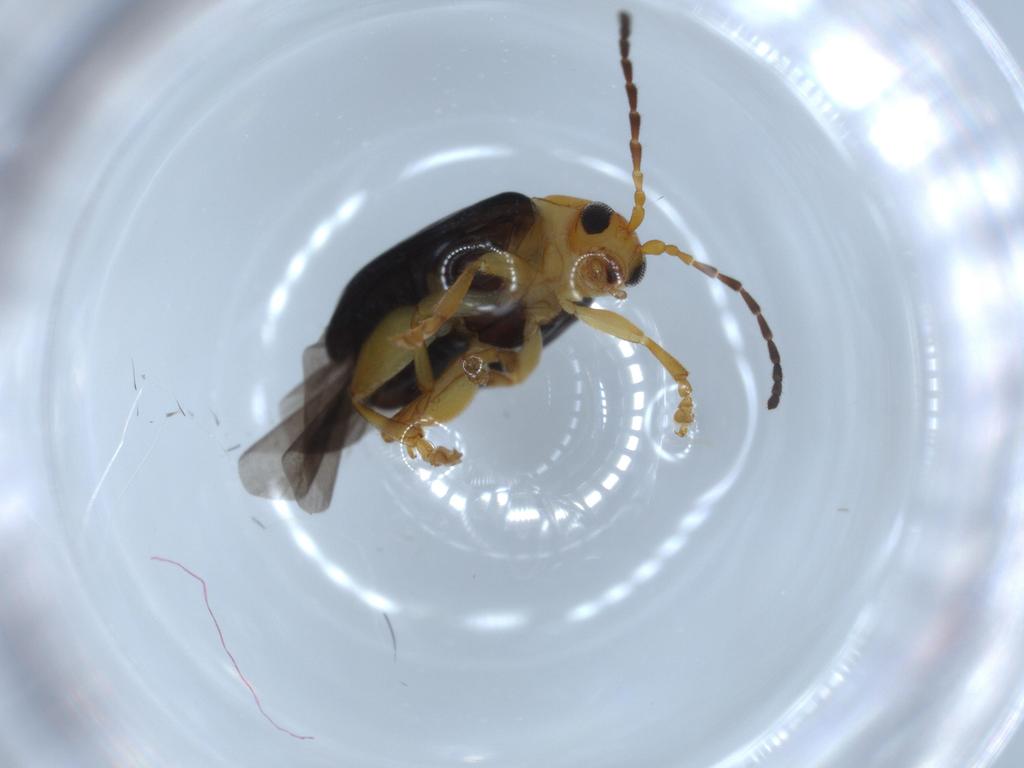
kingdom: Animalia
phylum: Arthropoda
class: Insecta
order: Coleoptera
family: Chrysomelidae
